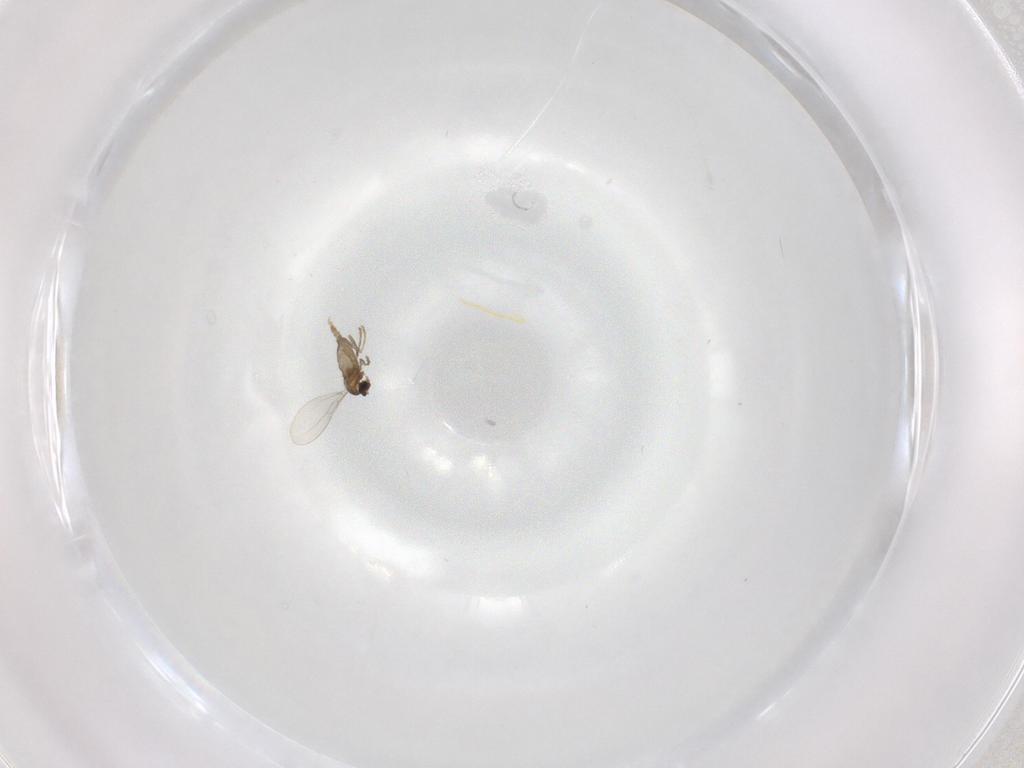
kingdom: Animalia
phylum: Arthropoda
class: Insecta
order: Diptera
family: Cecidomyiidae
